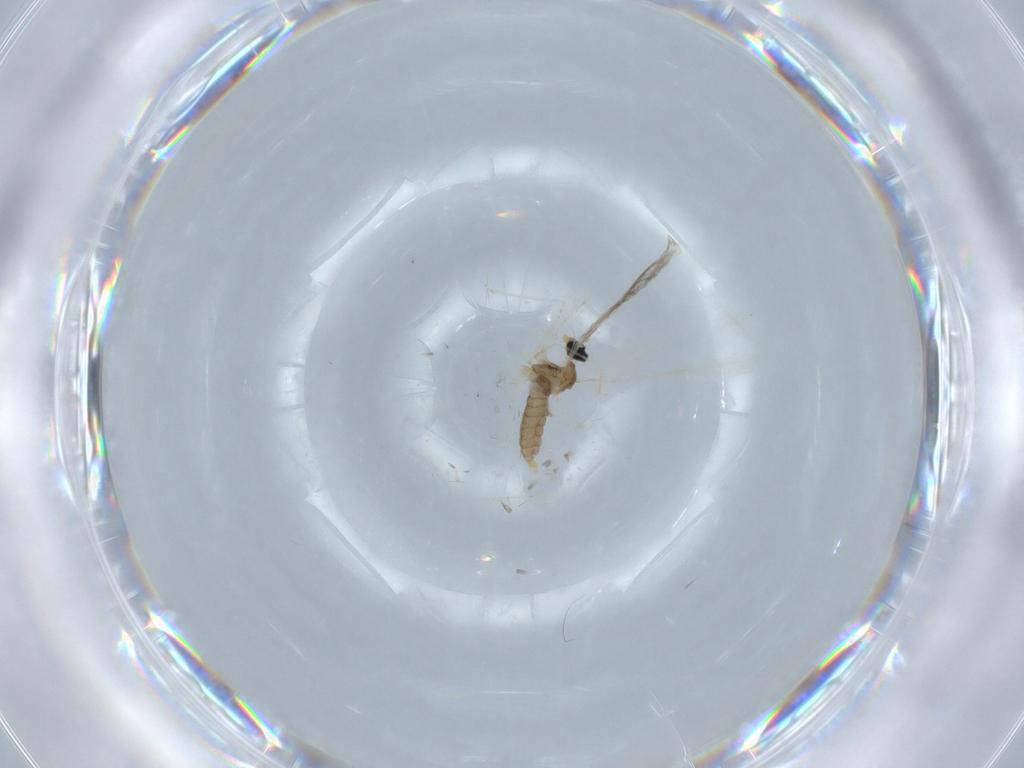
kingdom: Animalia
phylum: Arthropoda
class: Insecta
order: Diptera
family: Cecidomyiidae
